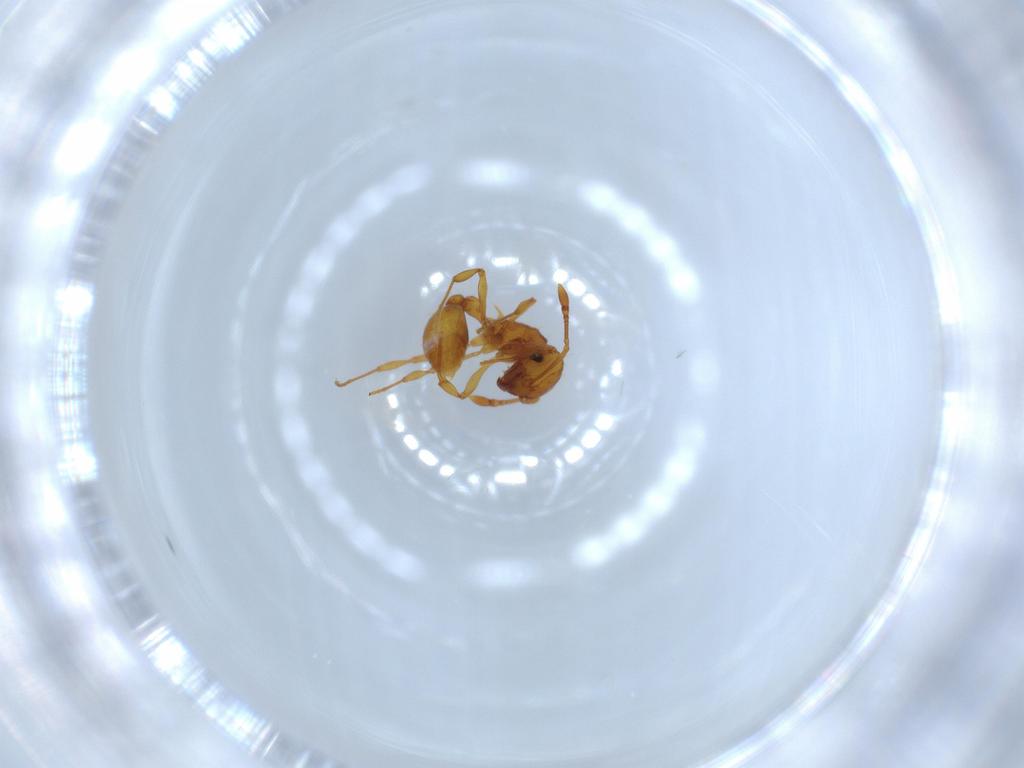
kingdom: Animalia
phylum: Arthropoda
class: Insecta
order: Hymenoptera
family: Formicidae
